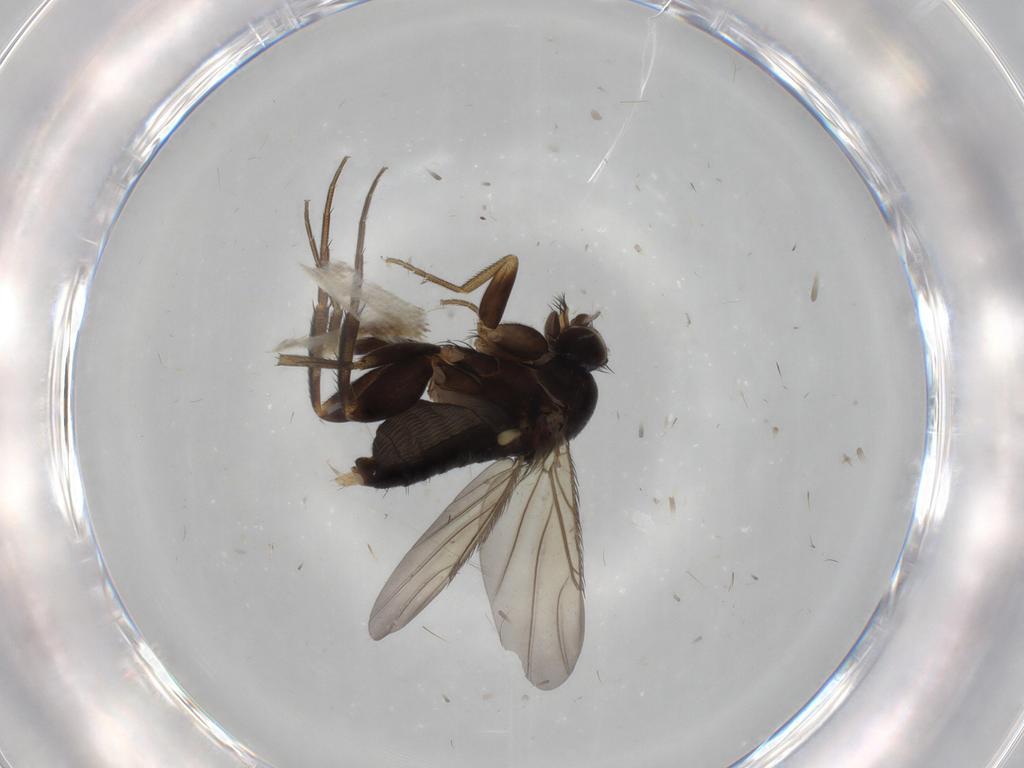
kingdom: Animalia
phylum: Arthropoda
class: Insecta
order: Diptera
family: Phoridae
